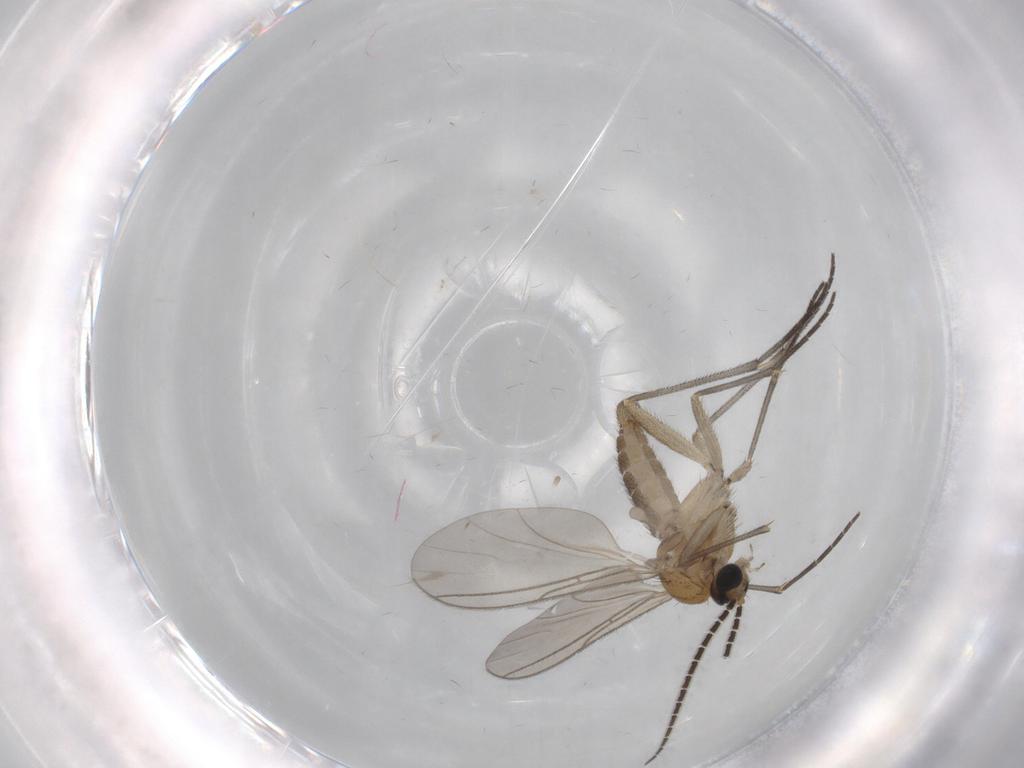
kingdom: Animalia
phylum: Arthropoda
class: Insecta
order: Diptera
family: Sciaridae
